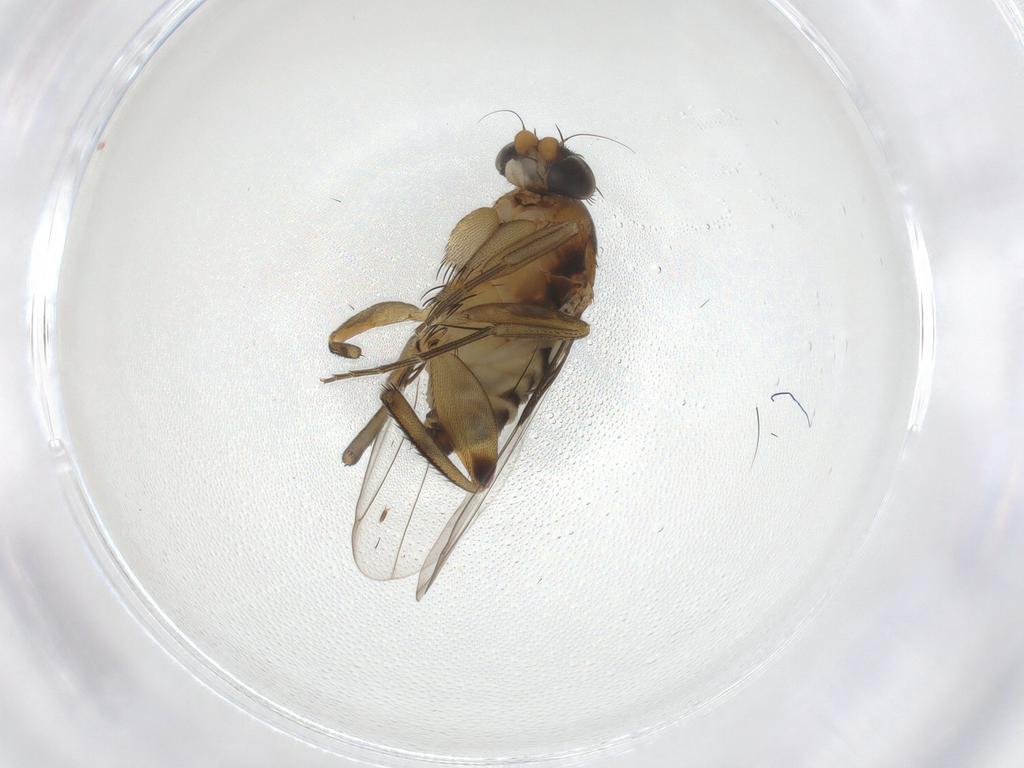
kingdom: Animalia
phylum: Arthropoda
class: Insecta
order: Diptera
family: Phoridae
